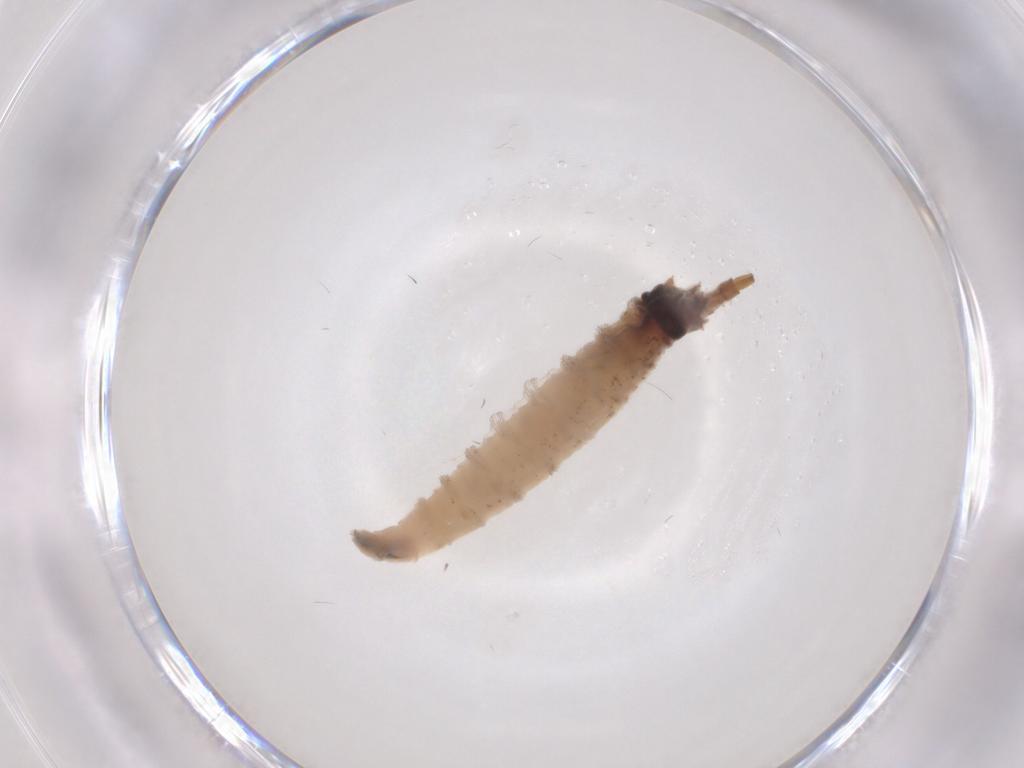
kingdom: Animalia
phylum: Arthropoda
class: Insecta
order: Diptera
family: Drosophilidae
